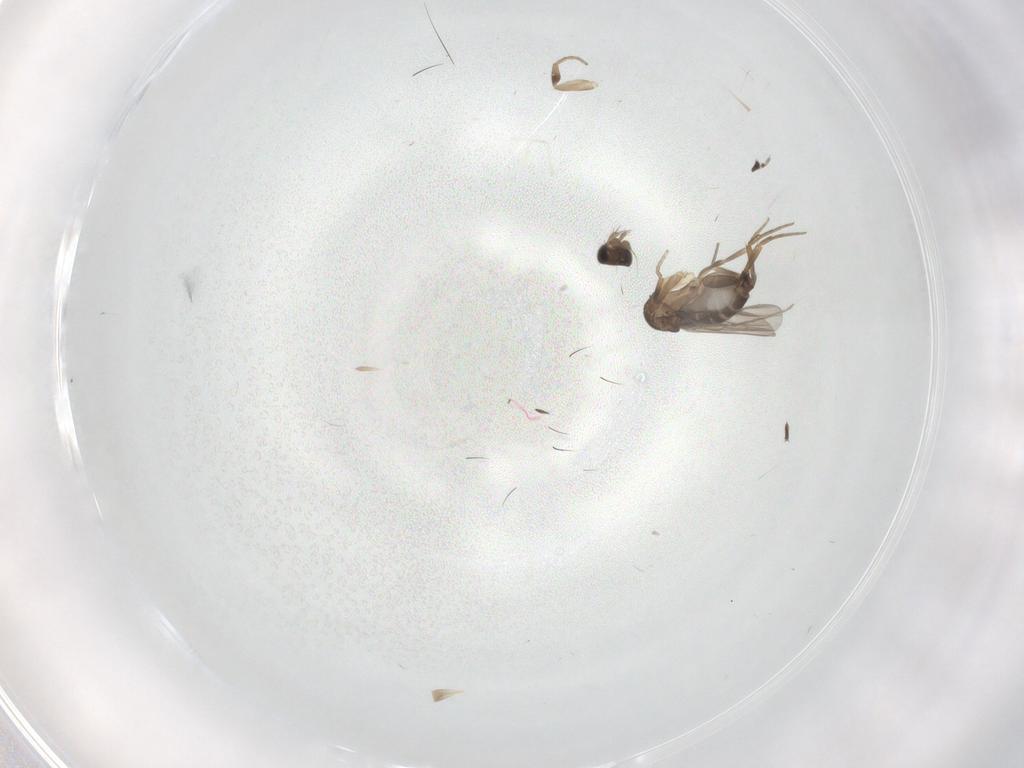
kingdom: Animalia
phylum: Arthropoda
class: Insecta
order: Diptera
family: Phoridae
